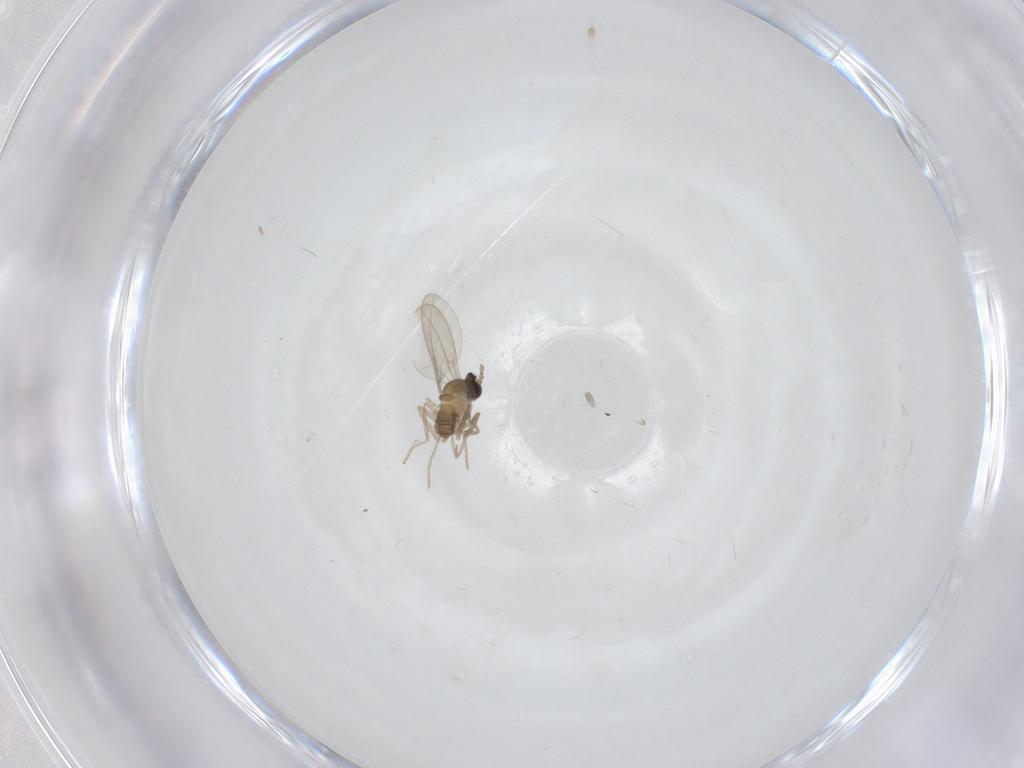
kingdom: Animalia
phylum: Arthropoda
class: Insecta
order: Diptera
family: Cecidomyiidae
